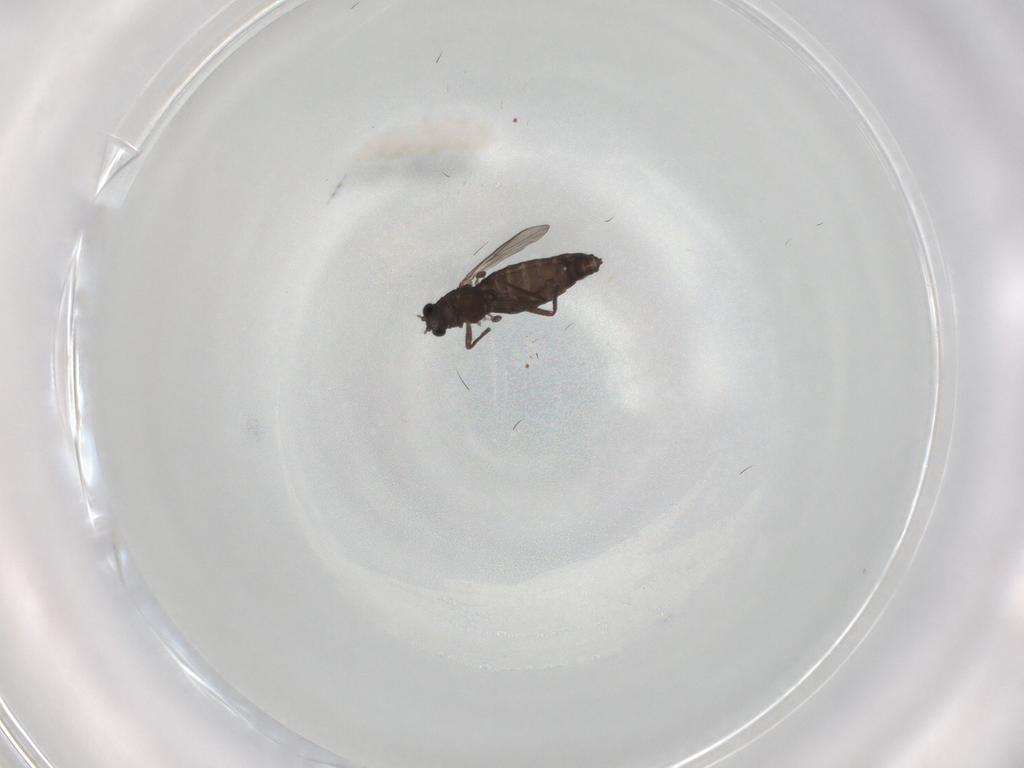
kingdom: Animalia
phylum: Arthropoda
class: Insecta
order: Diptera
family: Chironomidae
